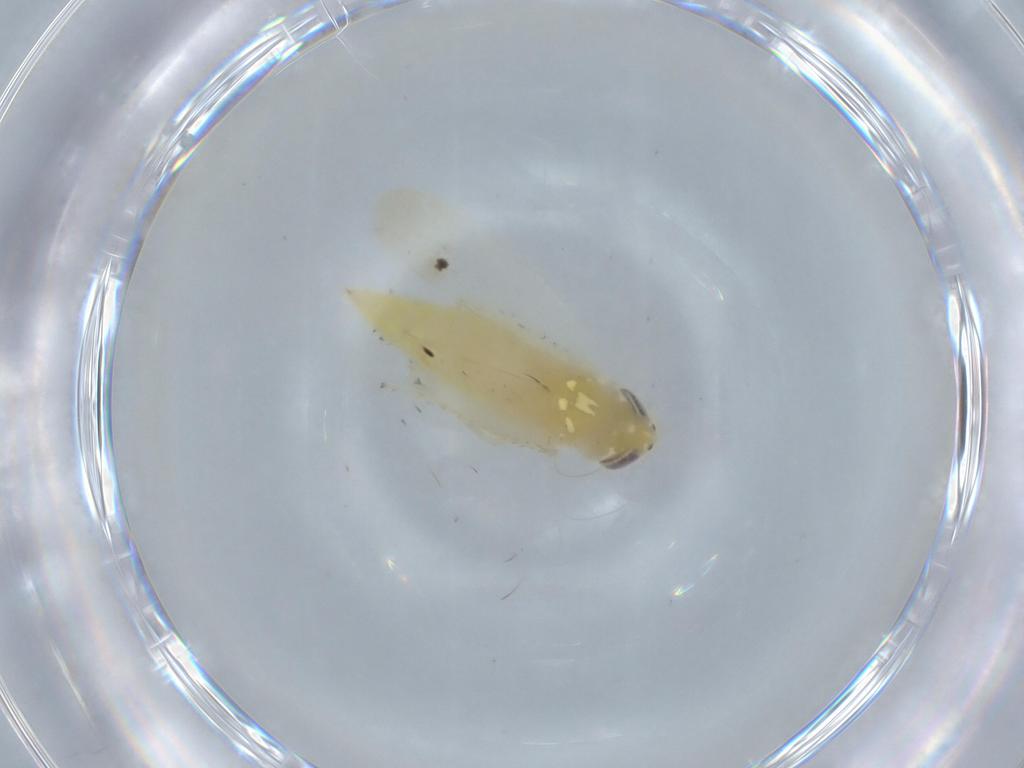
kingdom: Animalia
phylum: Arthropoda
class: Insecta
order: Hemiptera
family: Cicadellidae
